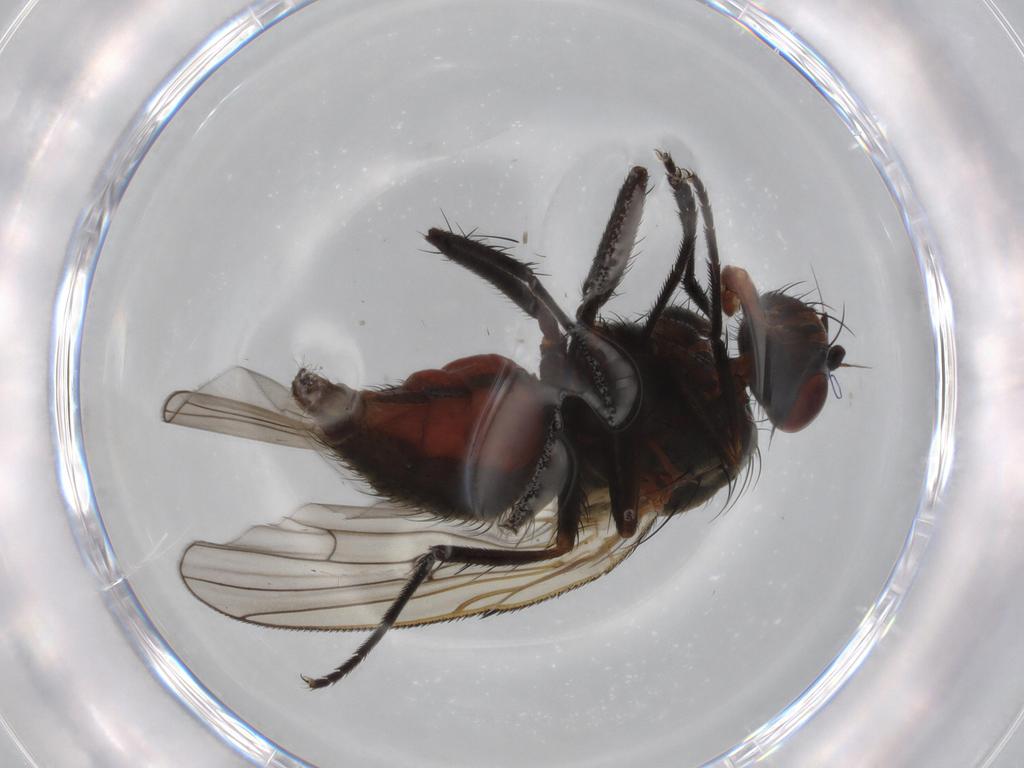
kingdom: Animalia
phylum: Arthropoda
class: Insecta
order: Diptera
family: Anthomyiidae
